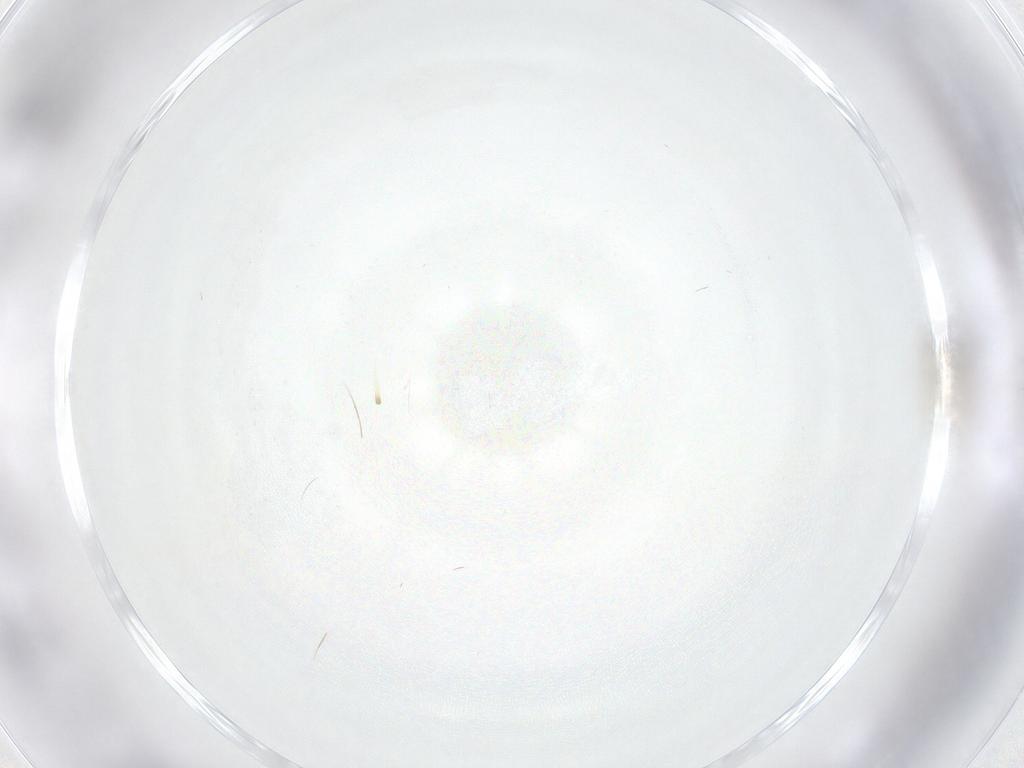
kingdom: Animalia
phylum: Arthropoda
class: Insecta
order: Diptera
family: Cecidomyiidae
